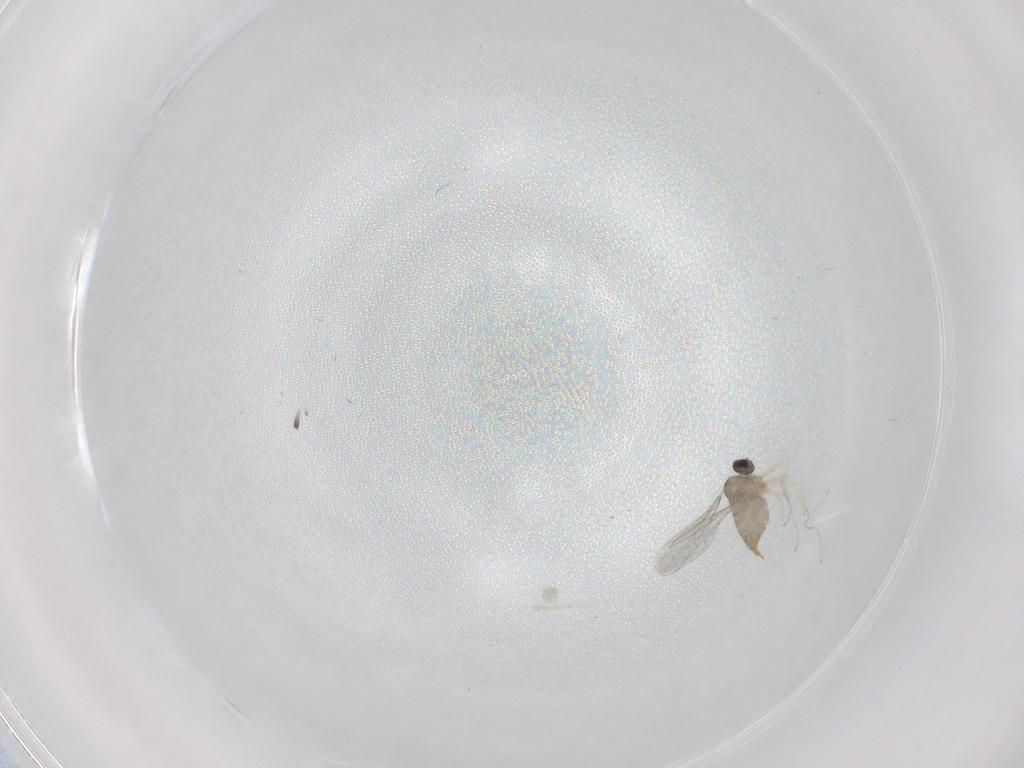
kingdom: Animalia
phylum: Arthropoda
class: Insecta
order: Diptera
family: Cecidomyiidae
